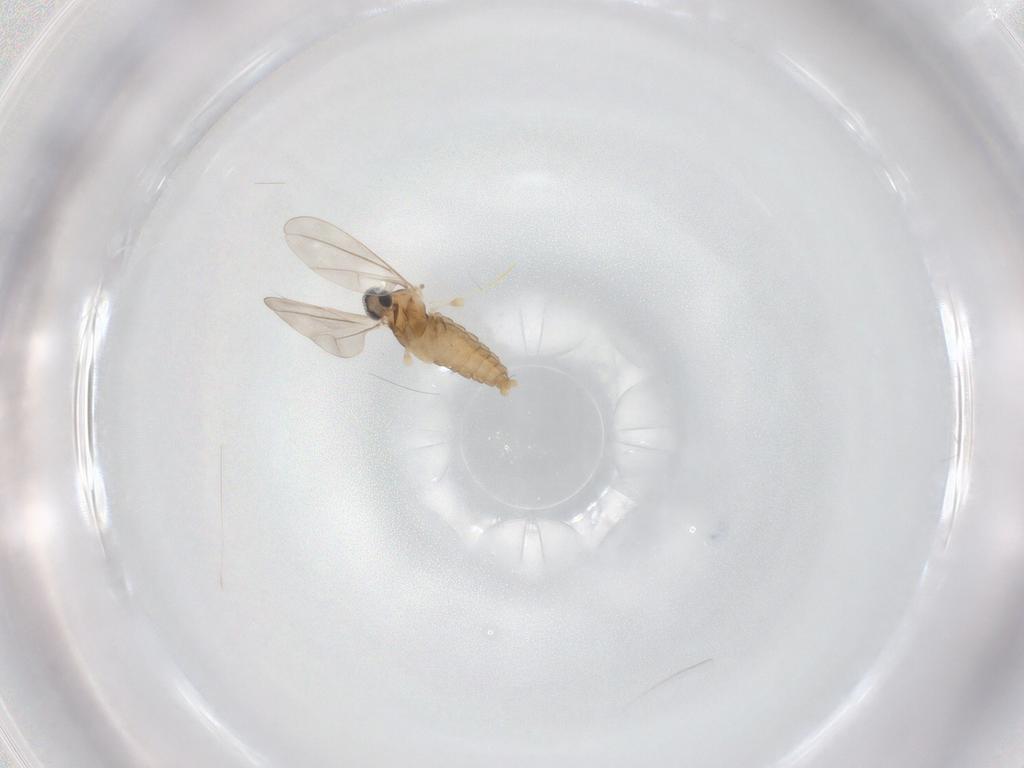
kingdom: Animalia
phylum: Arthropoda
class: Insecta
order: Diptera
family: Cecidomyiidae
